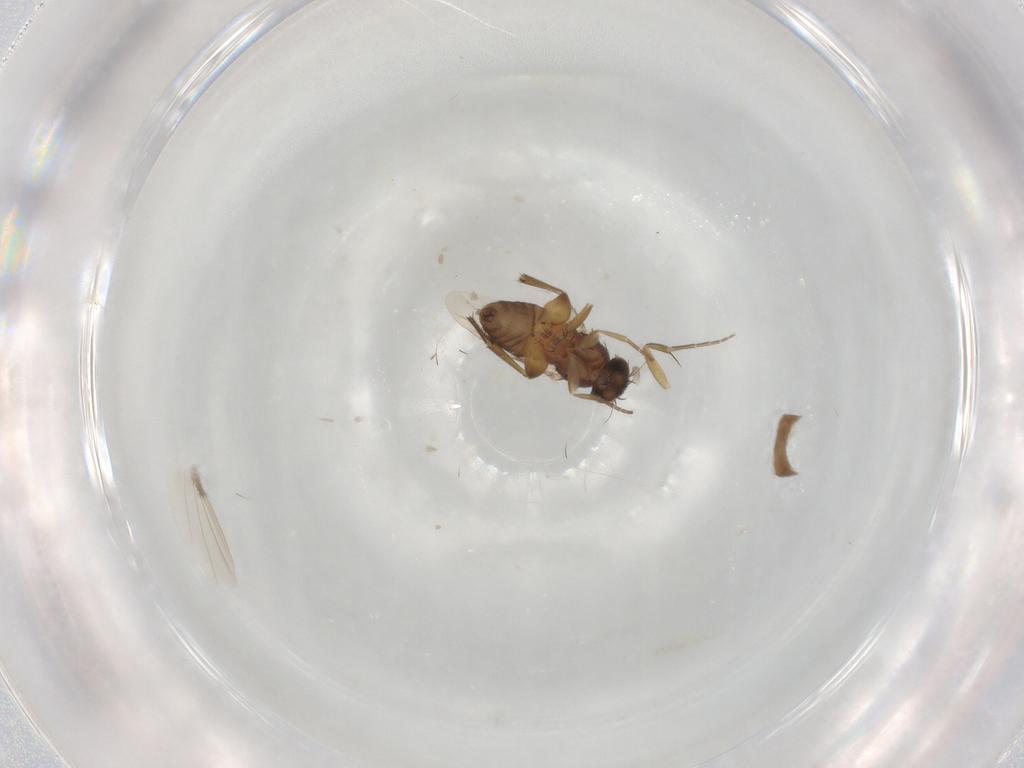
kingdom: Animalia
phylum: Arthropoda
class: Insecta
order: Diptera
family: Phoridae
